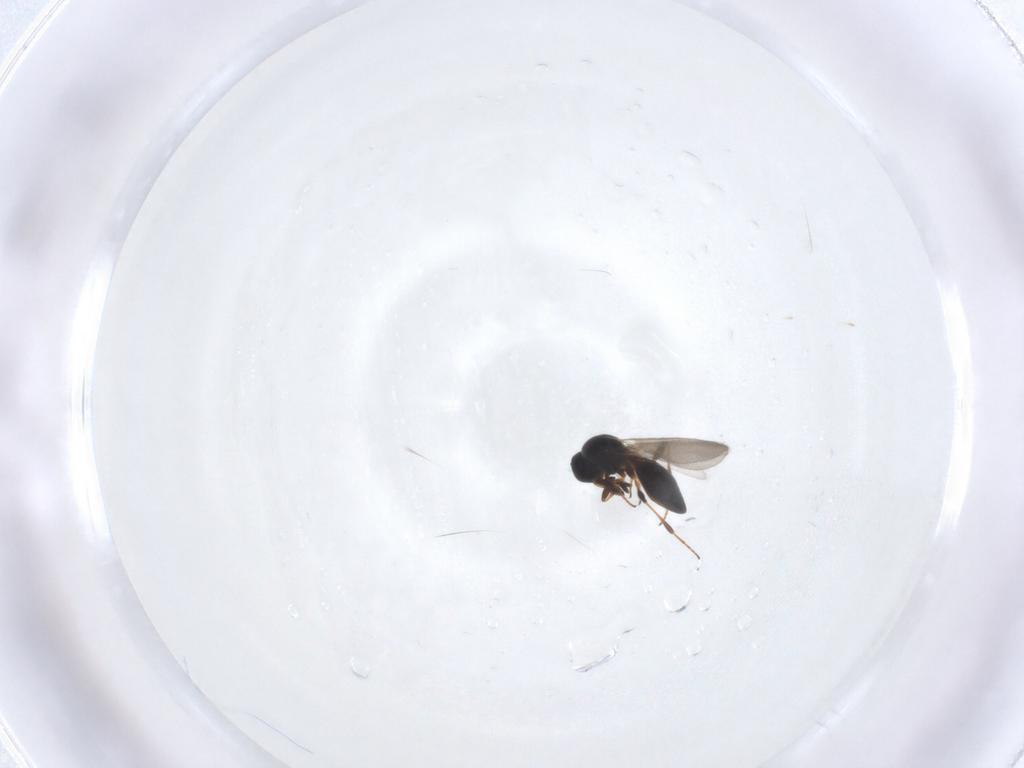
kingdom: Animalia
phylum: Arthropoda
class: Insecta
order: Hymenoptera
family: Platygastridae
